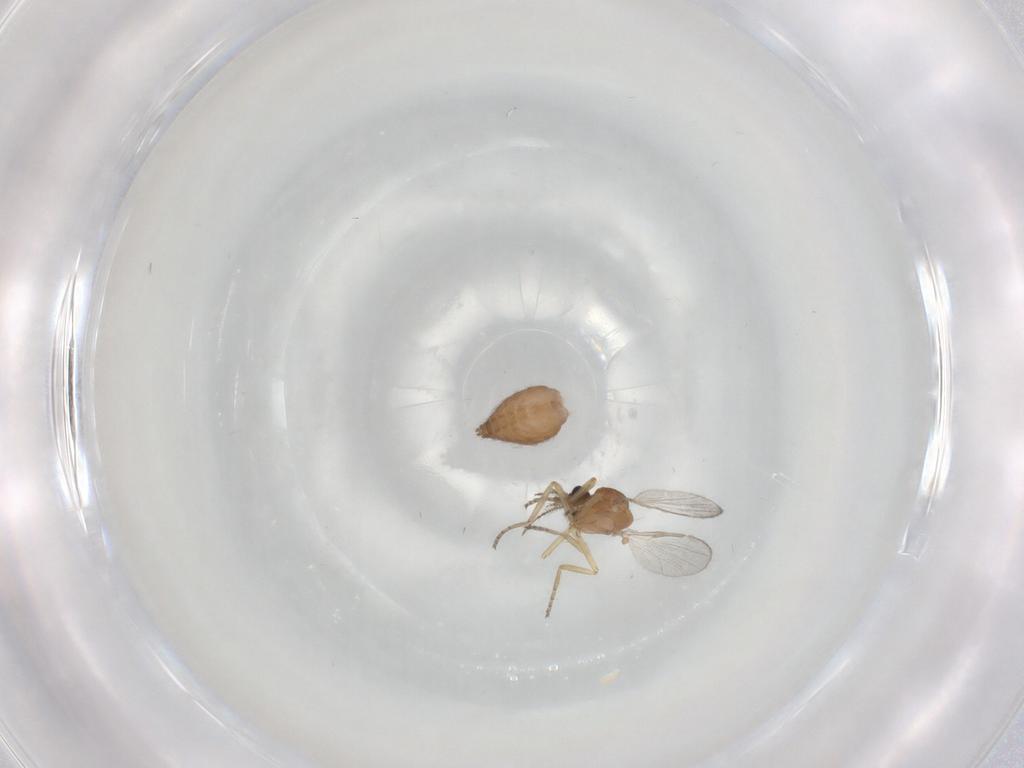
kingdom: Animalia
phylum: Arthropoda
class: Insecta
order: Diptera
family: Ceratopogonidae
